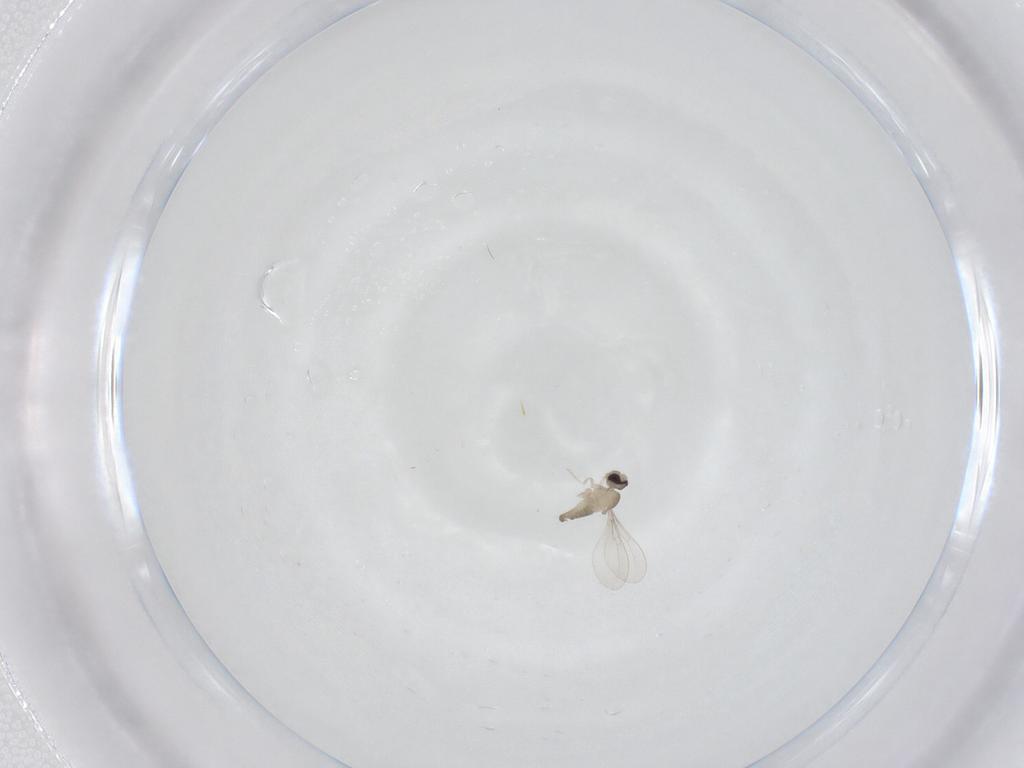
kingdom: Animalia
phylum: Arthropoda
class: Insecta
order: Diptera
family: Cecidomyiidae
